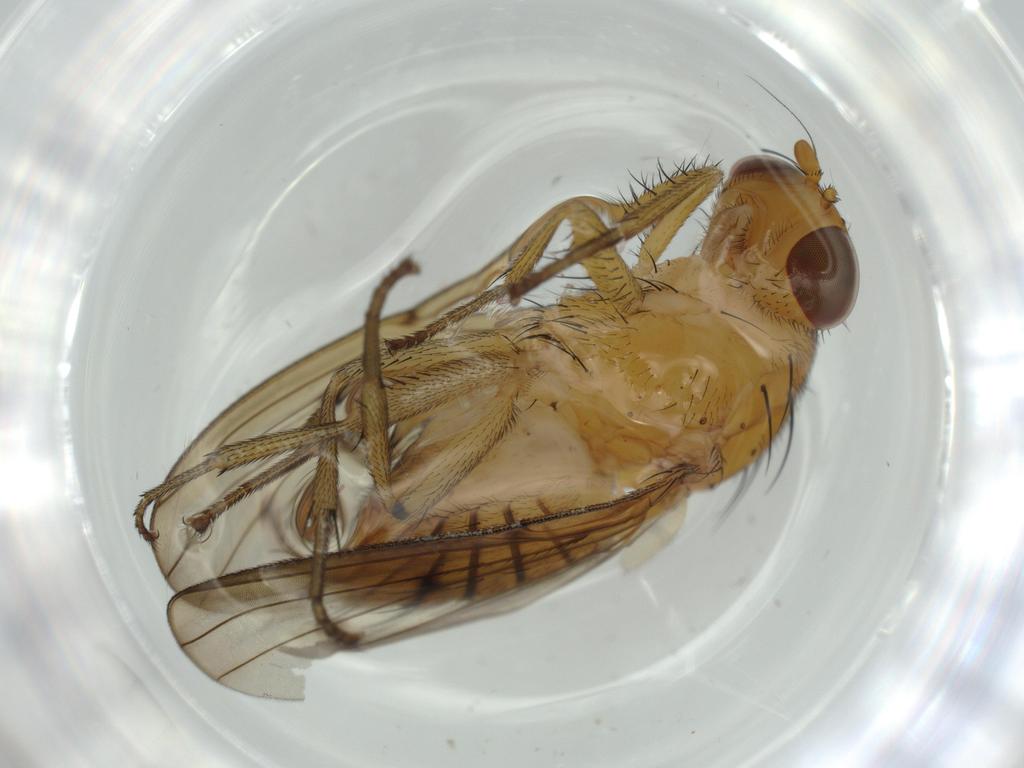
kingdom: Animalia
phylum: Arthropoda
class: Insecta
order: Diptera
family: Chironomidae
